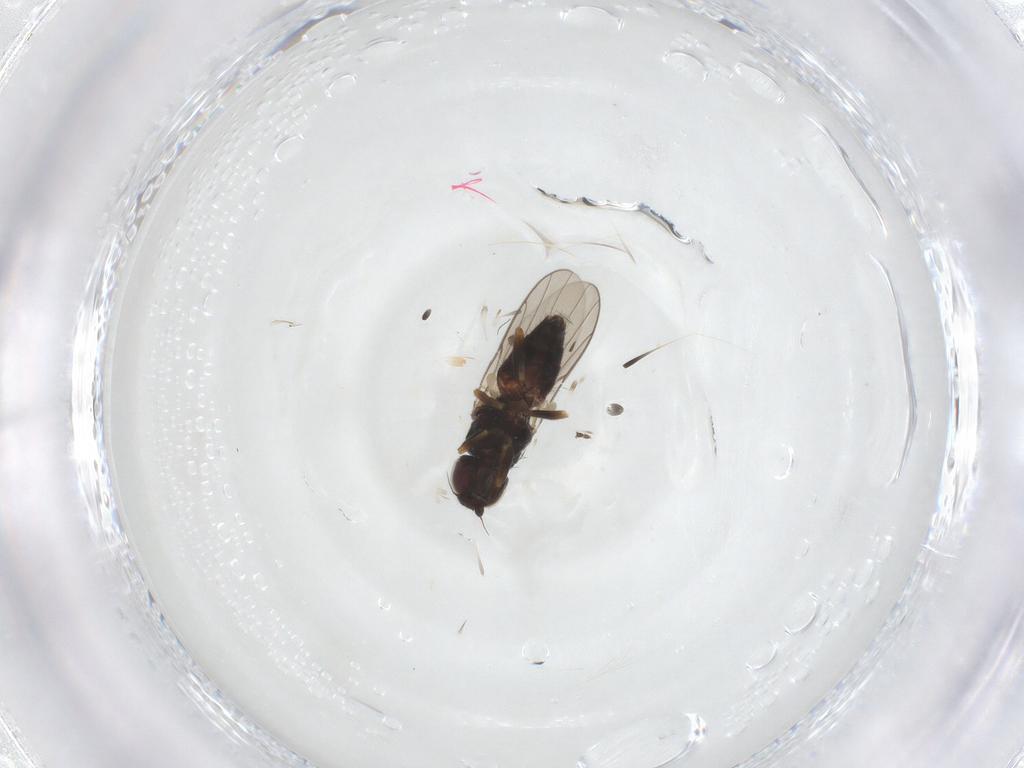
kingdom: Animalia
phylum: Arthropoda
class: Insecta
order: Diptera
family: Chloropidae
